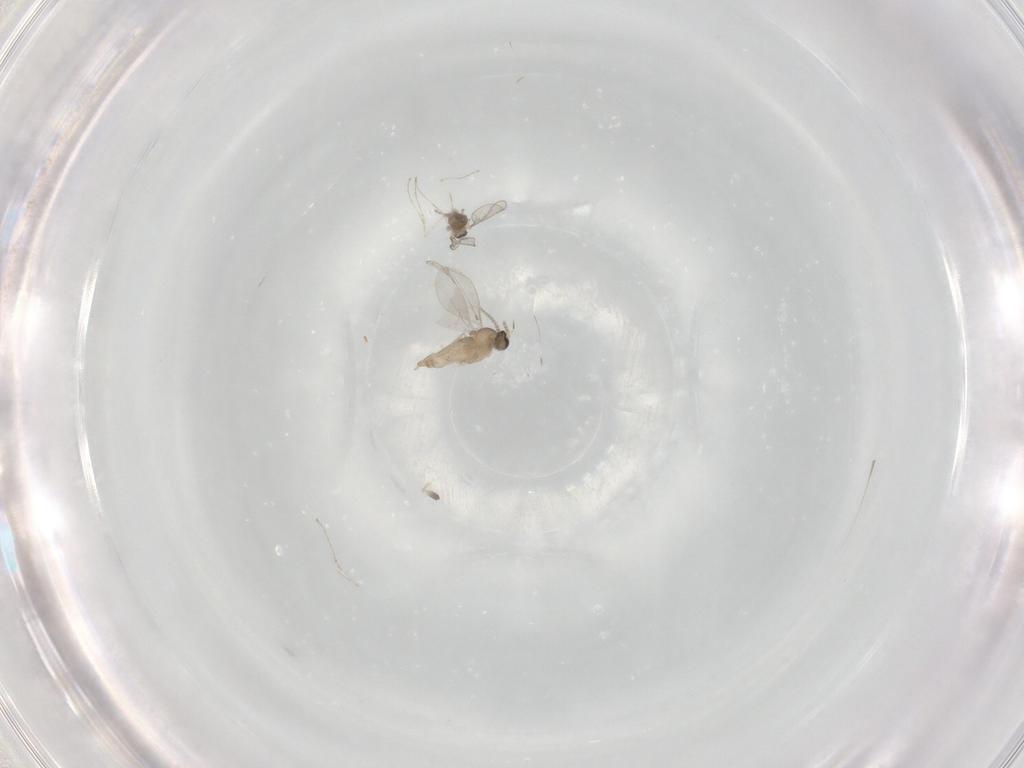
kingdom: Animalia
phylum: Arthropoda
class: Insecta
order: Diptera
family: Cecidomyiidae
